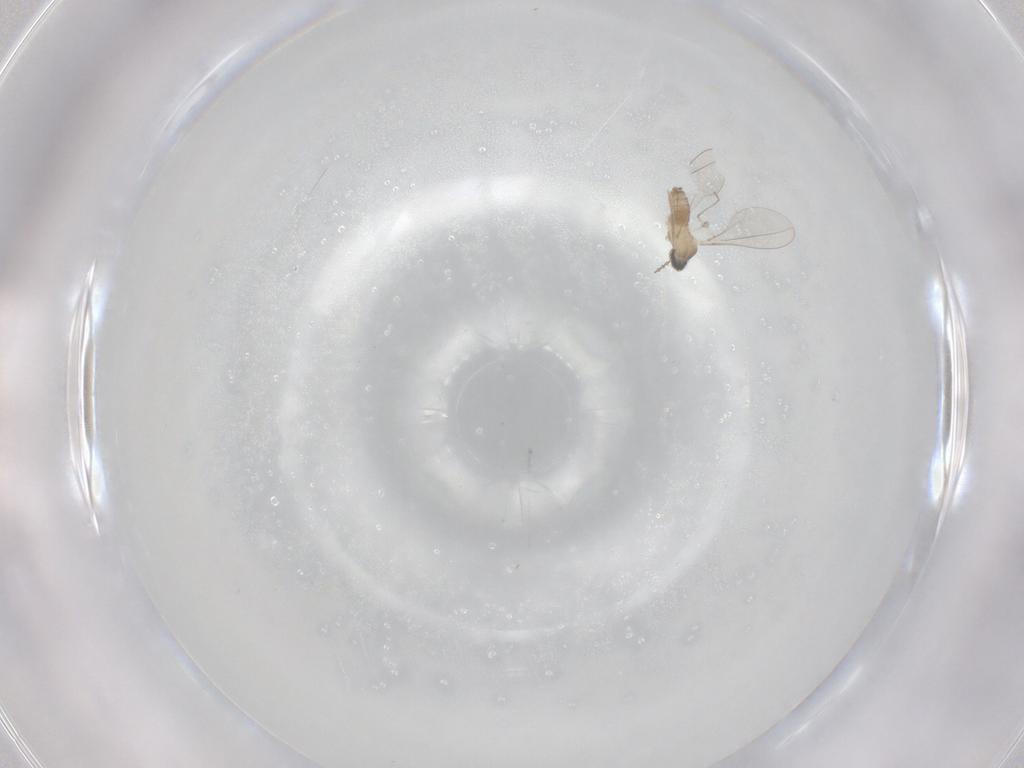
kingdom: Animalia
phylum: Arthropoda
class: Insecta
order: Diptera
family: Cecidomyiidae
